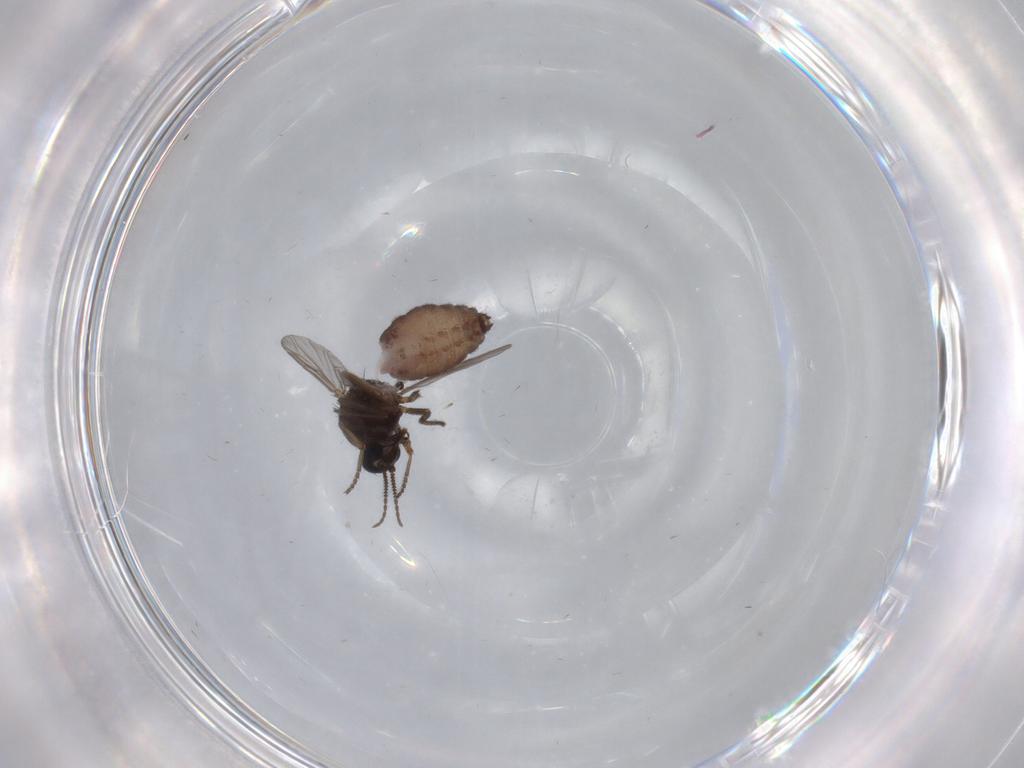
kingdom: Animalia
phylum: Arthropoda
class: Insecta
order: Diptera
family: Ceratopogonidae
